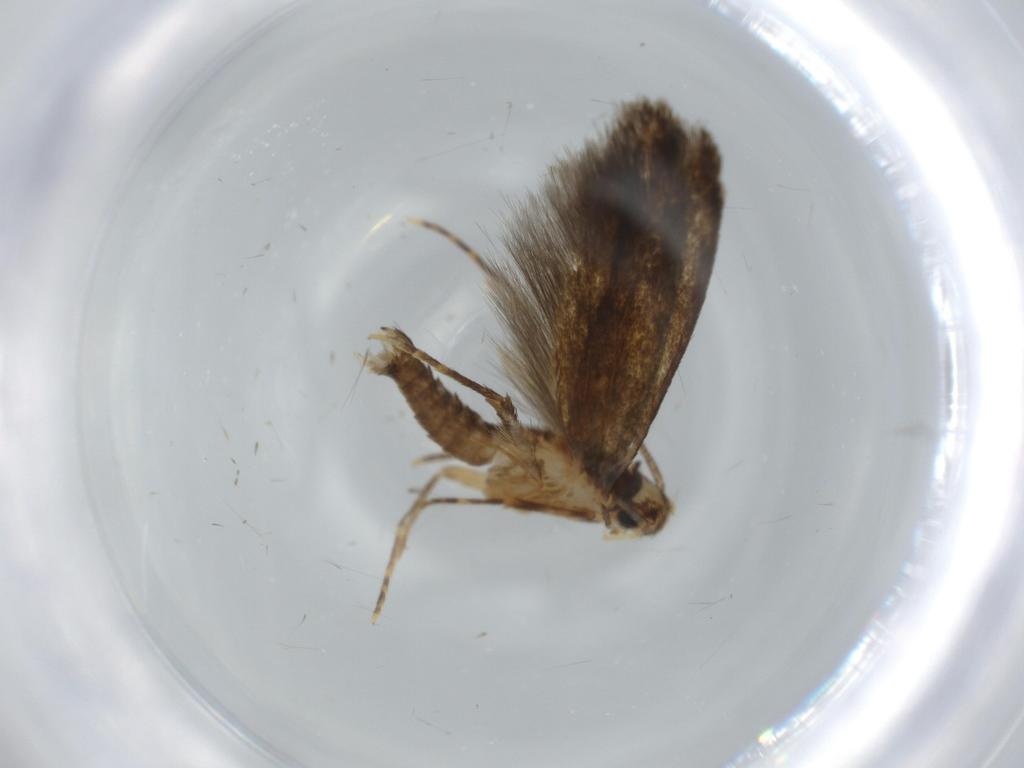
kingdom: Animalia
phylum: Arthropoda
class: Insecta
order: Lepidoptera
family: Tineidae
